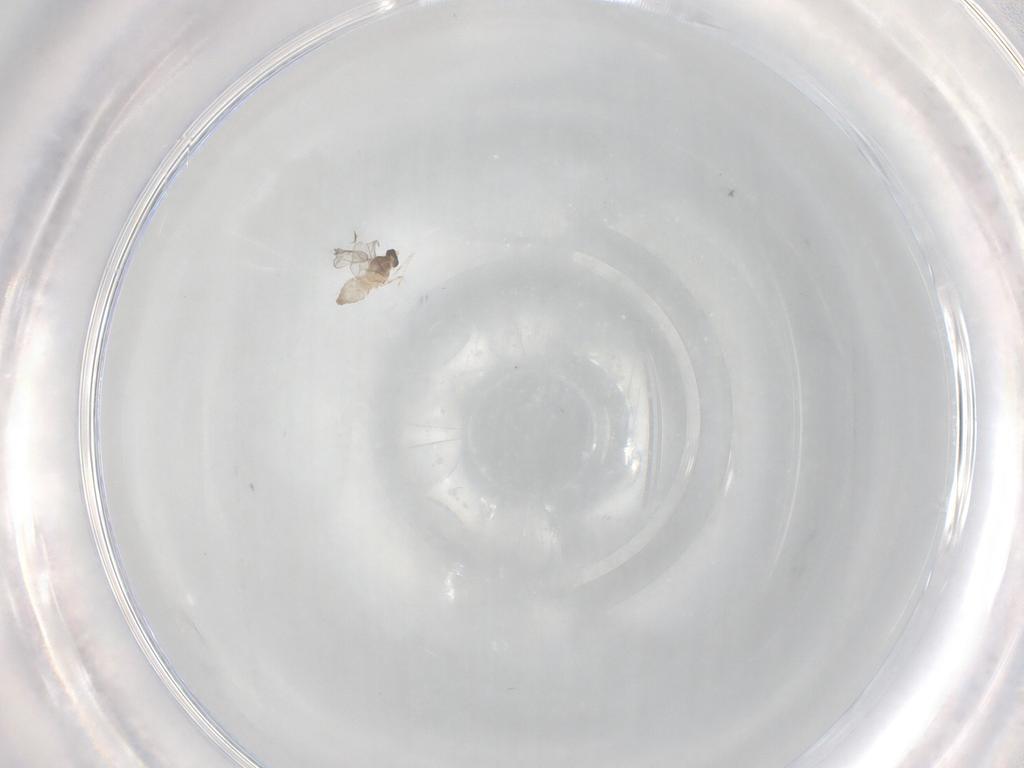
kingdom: Animalia
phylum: Arthropoda
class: Insecta
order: Diptera
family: Cecidomyiidae
